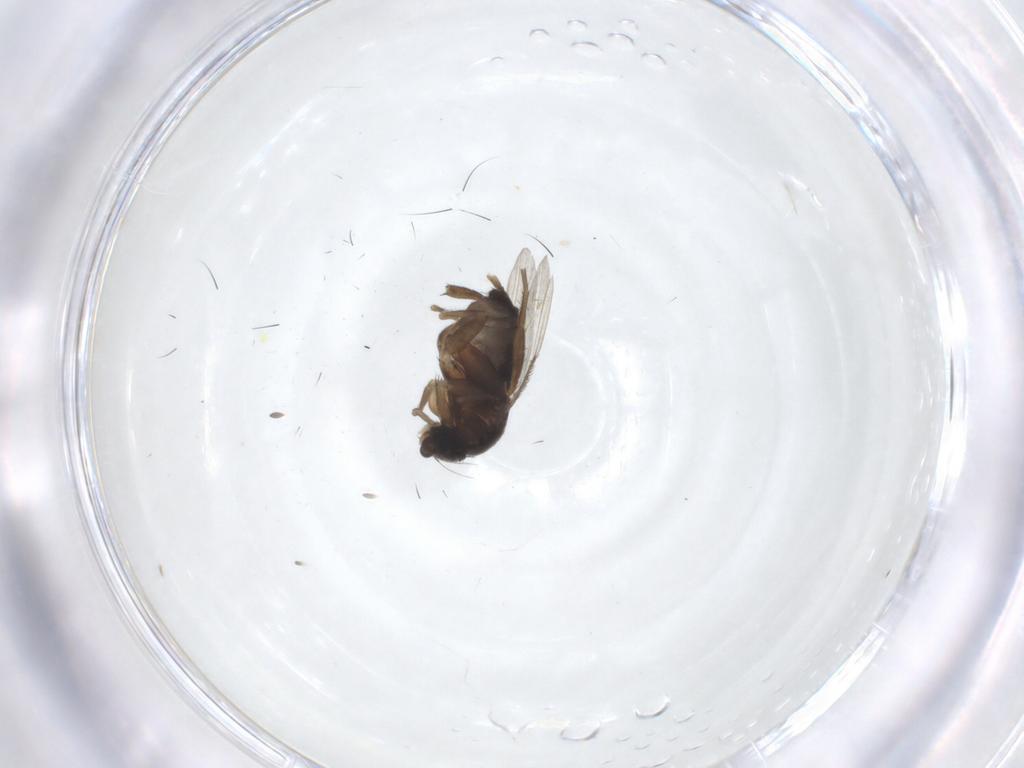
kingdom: Animalia
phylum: Arthropoda
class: Insecta
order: Diptera
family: Phoridae
